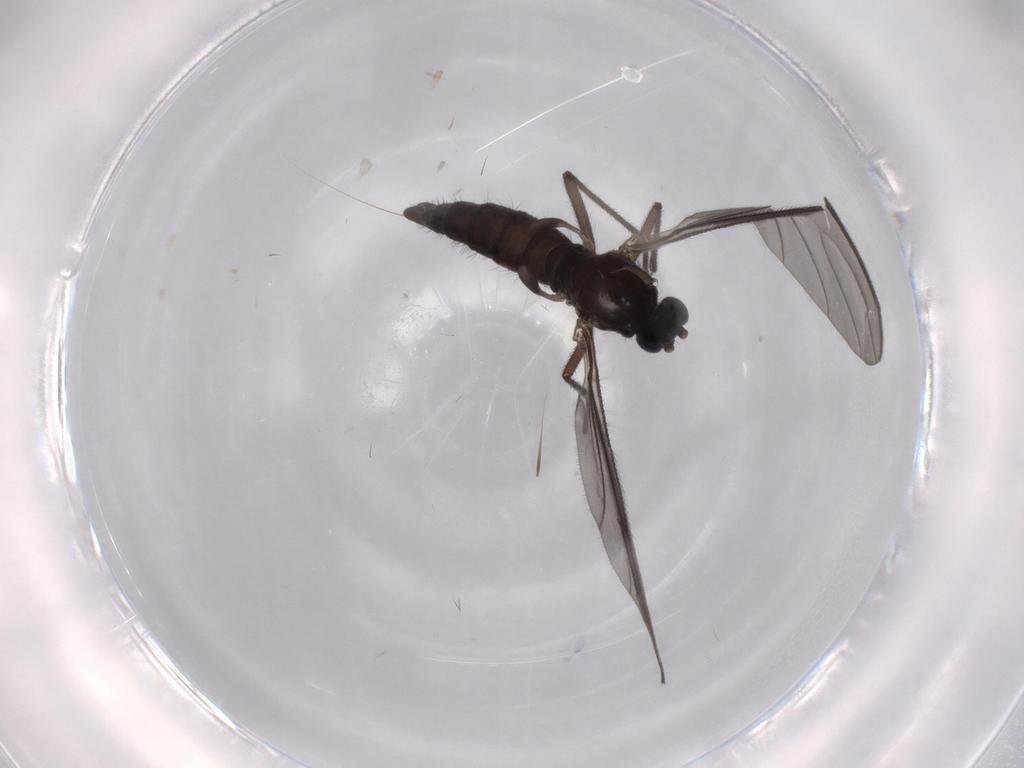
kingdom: Animalia
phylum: Arthropoda
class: Insecta
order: Diptera
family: Sciaridae
